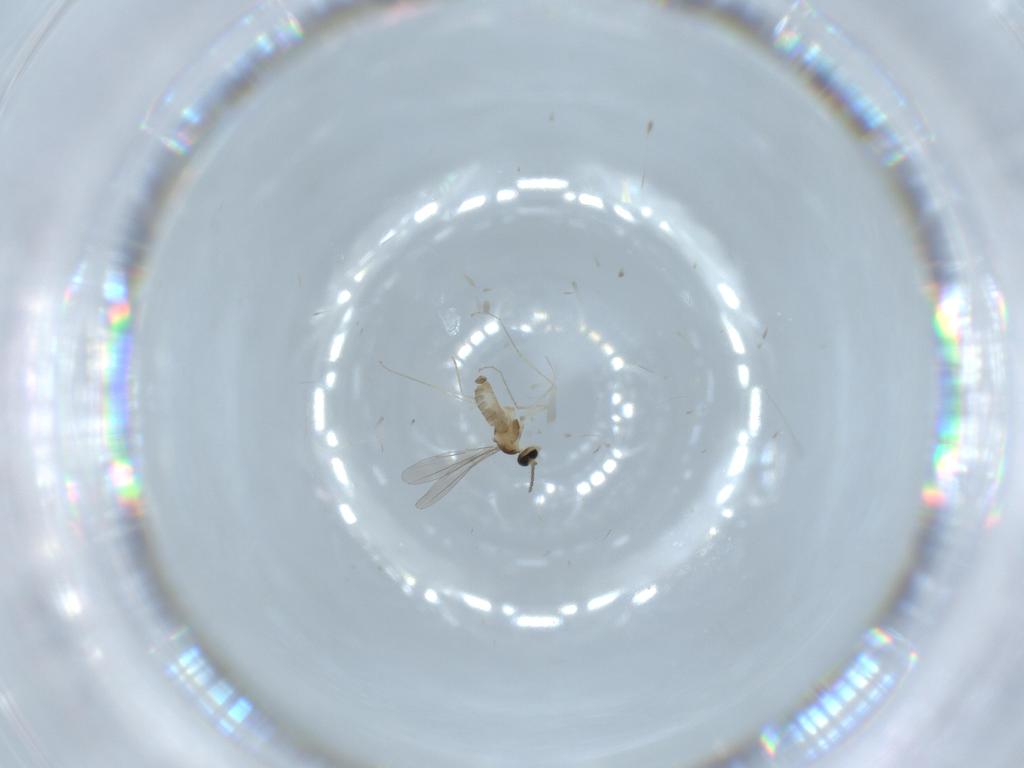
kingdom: Animalia
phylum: Arthropoda
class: Insecta
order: Diptera
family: Cecidomyiidae
